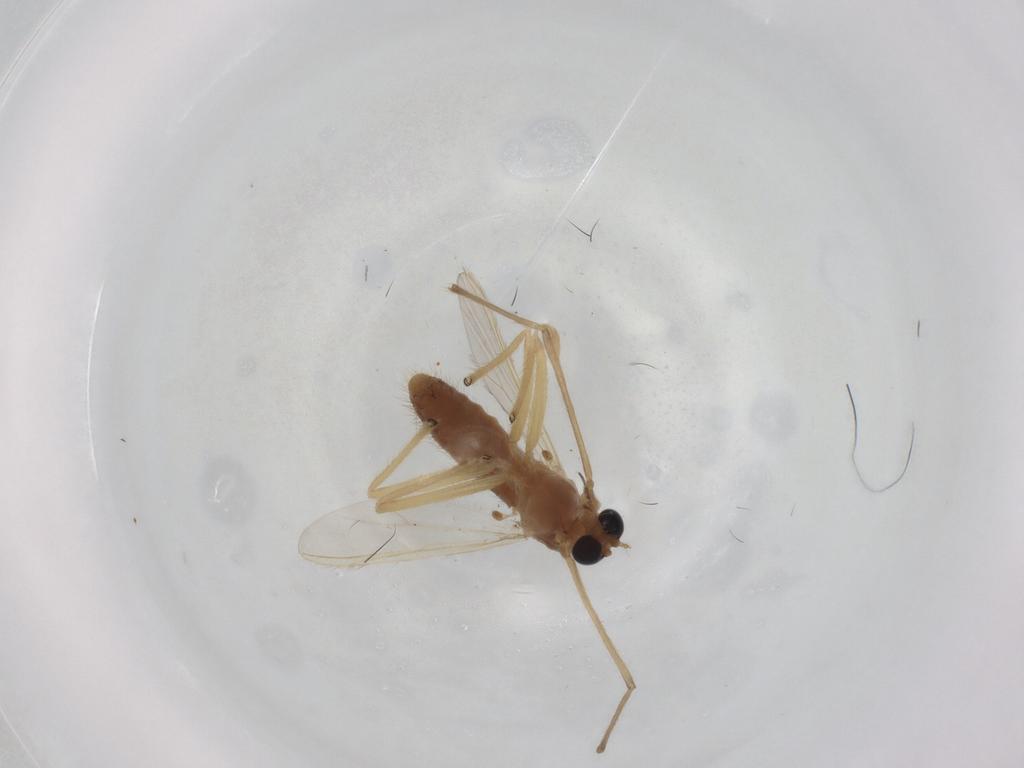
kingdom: Animalia
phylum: Arthropoda
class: Insecta
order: Diptera
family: Chironomidae
